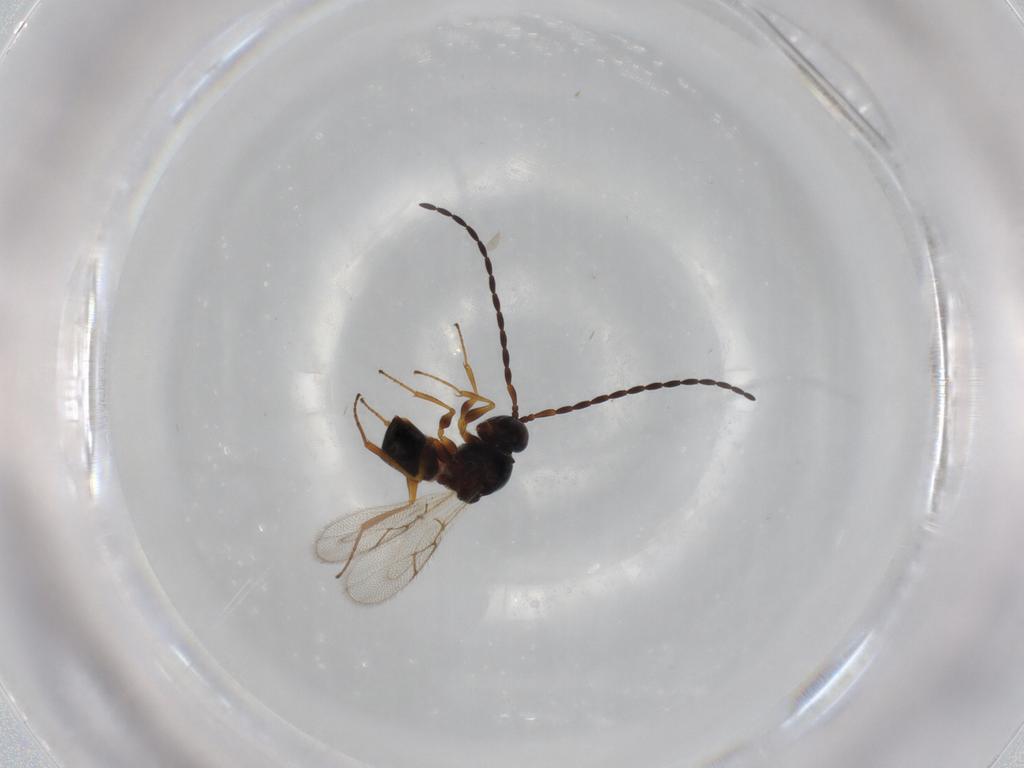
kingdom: Animalia
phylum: Arthropoda
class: Insecta
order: Hymenoptera
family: Figitidae
